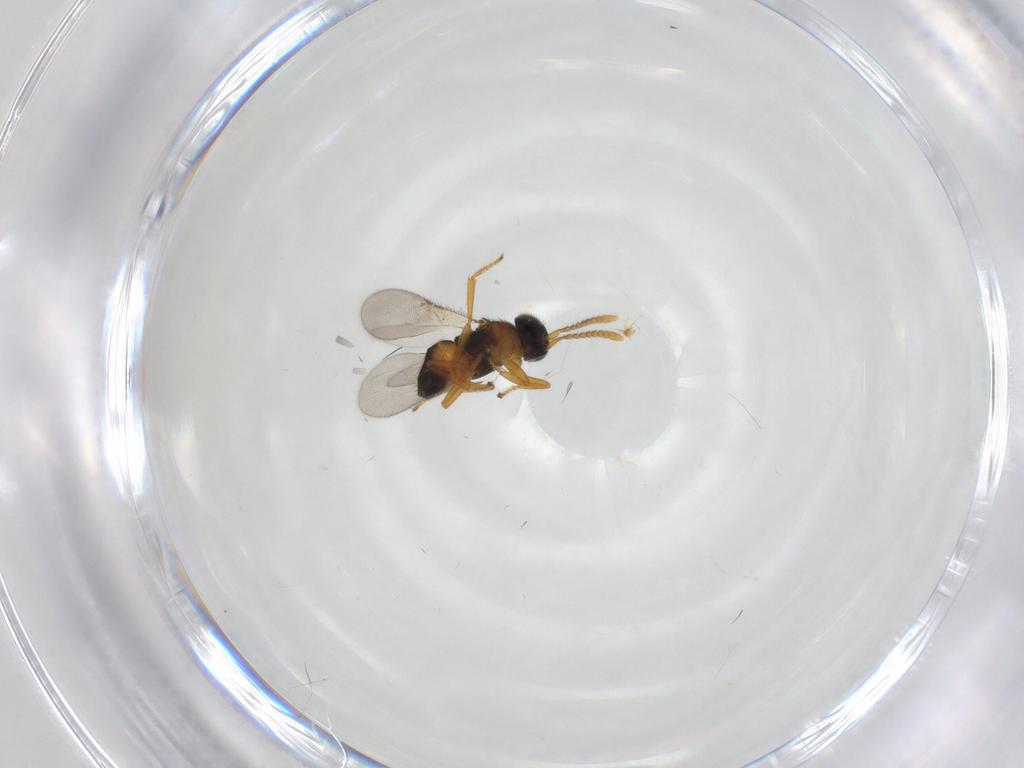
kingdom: Animalia
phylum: Arthropoda
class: Insecta
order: Hymenoptera
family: Encyrtidae
